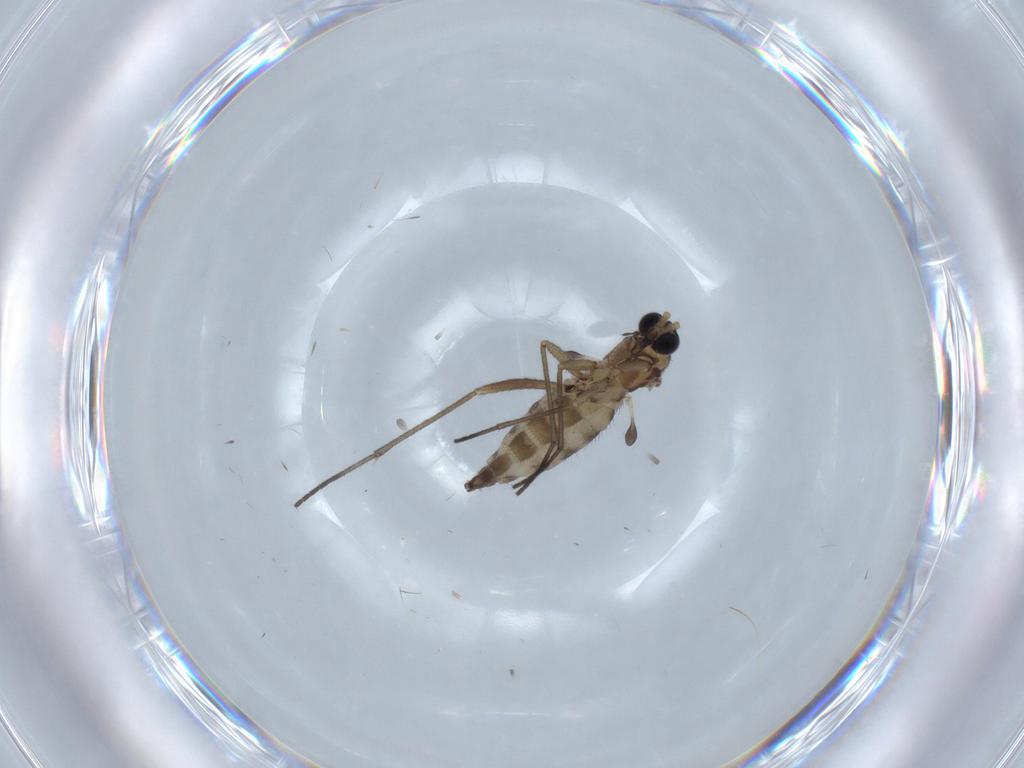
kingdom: Animalia
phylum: Arthropoda
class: Insecta
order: Diptera
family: Sciaridae
